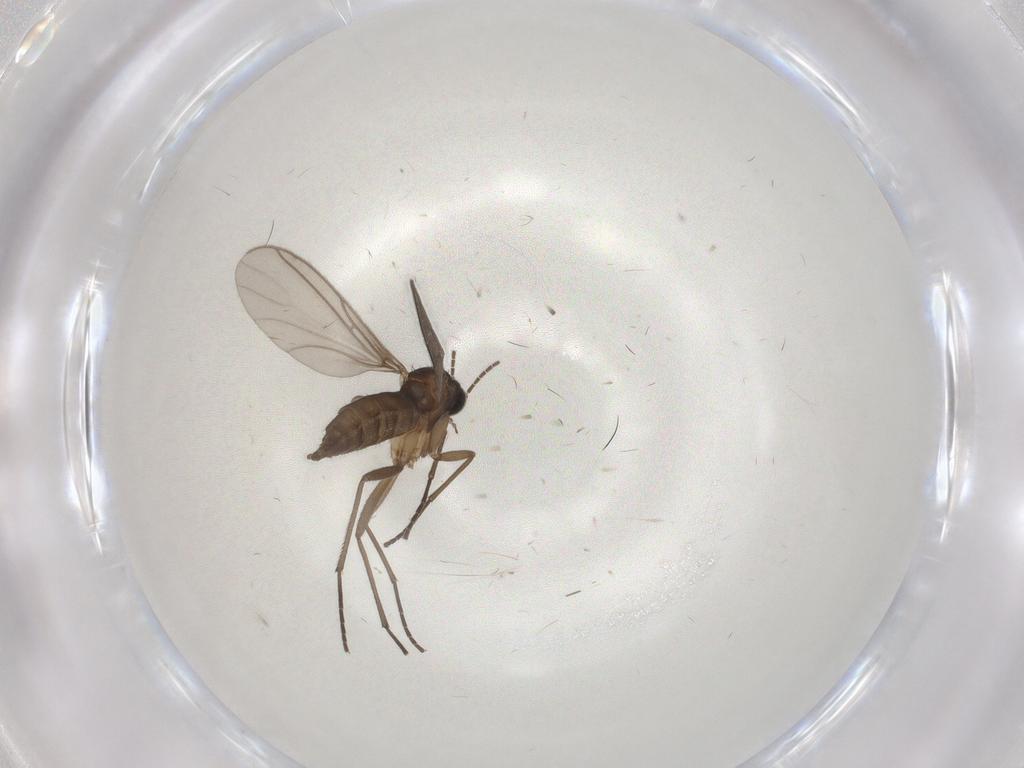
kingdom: Animalia
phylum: Arthropoda
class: Insecta
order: Diptera
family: Sciaridae
